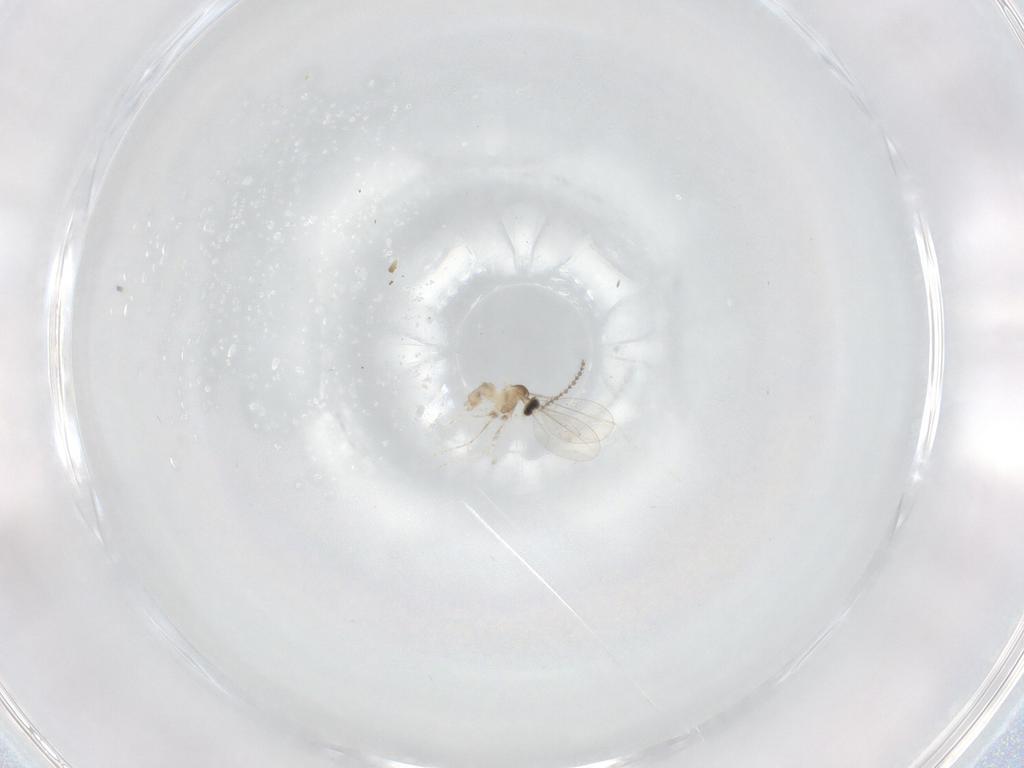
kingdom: Animalia
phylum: Arthropoda
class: Insecta
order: Diptera
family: Cecidomyiidae
